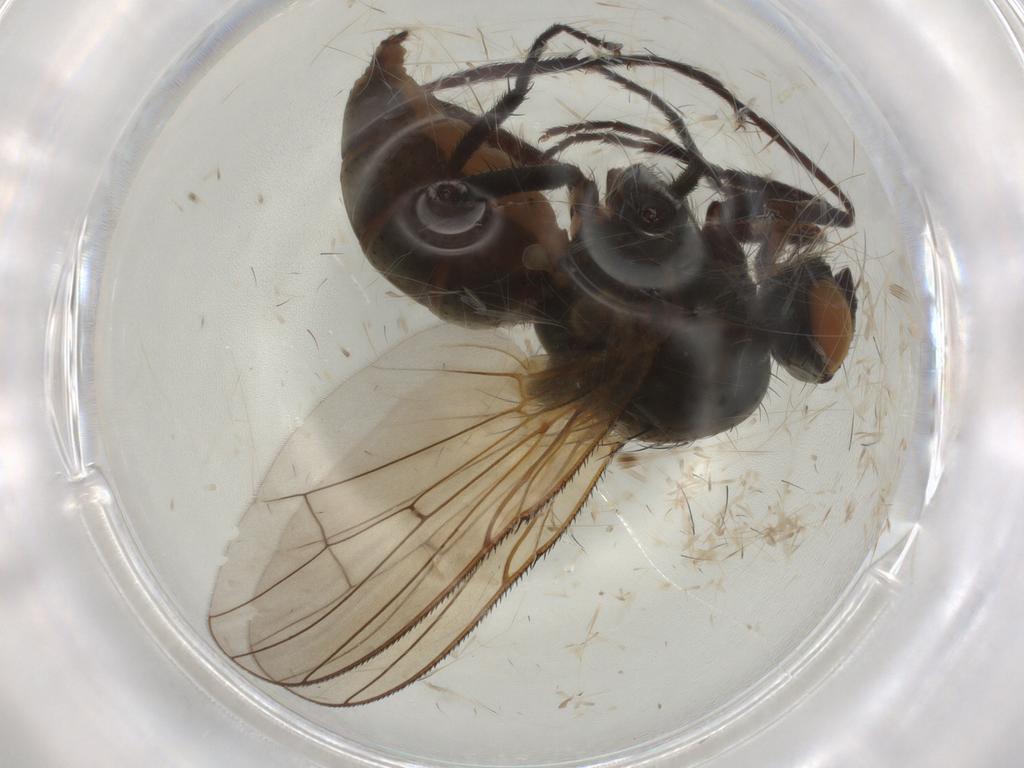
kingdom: Animalia
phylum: Arthropoda
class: Insecta
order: Diptera
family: Anthomyiidae
